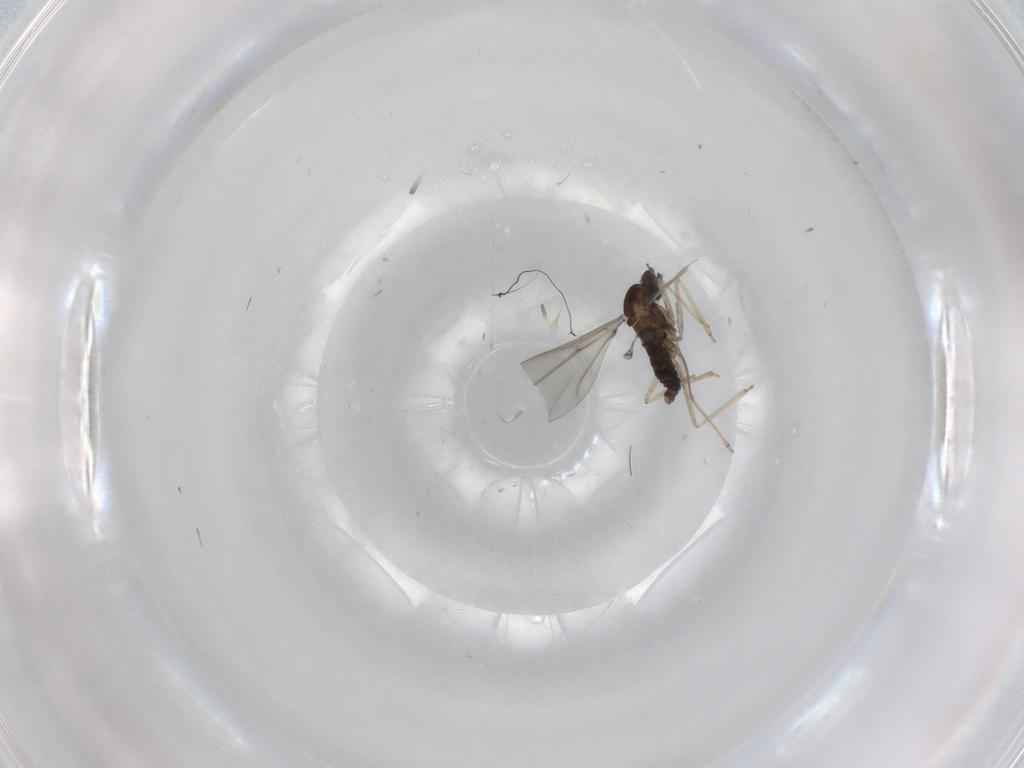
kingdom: Animalia
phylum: Arthropoda
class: Insecta
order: Diptera
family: Cecidomyiidae
